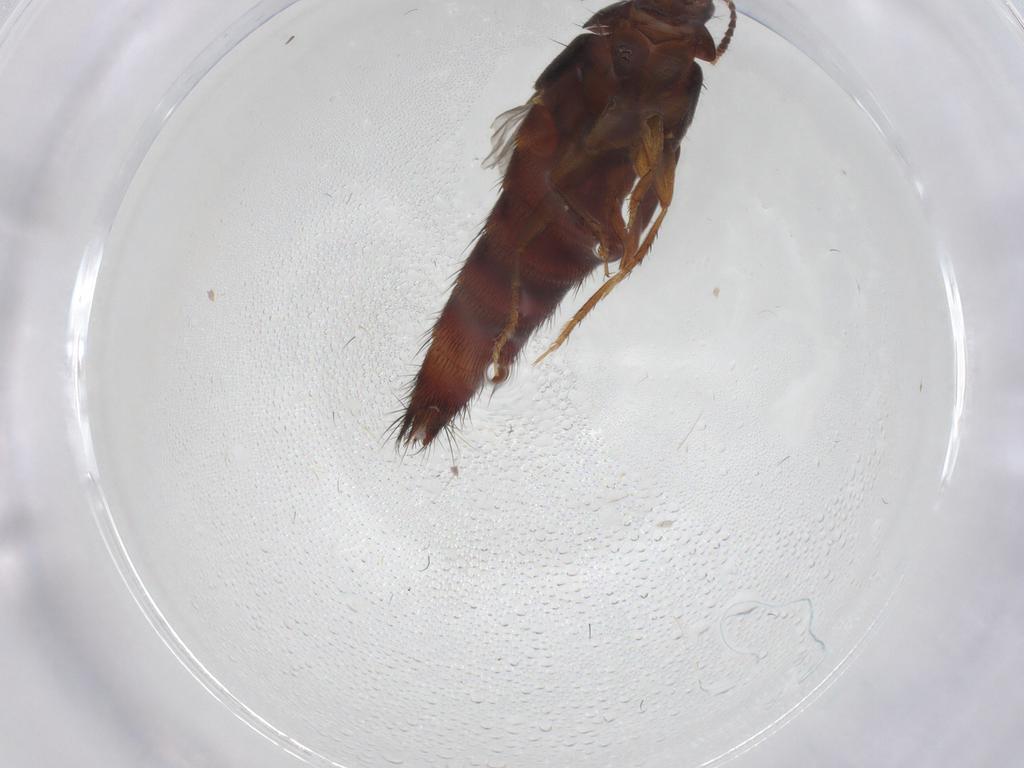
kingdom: Animalia
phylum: Arthropoda
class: Insecta
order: Coleoptera
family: Staphylinidae
